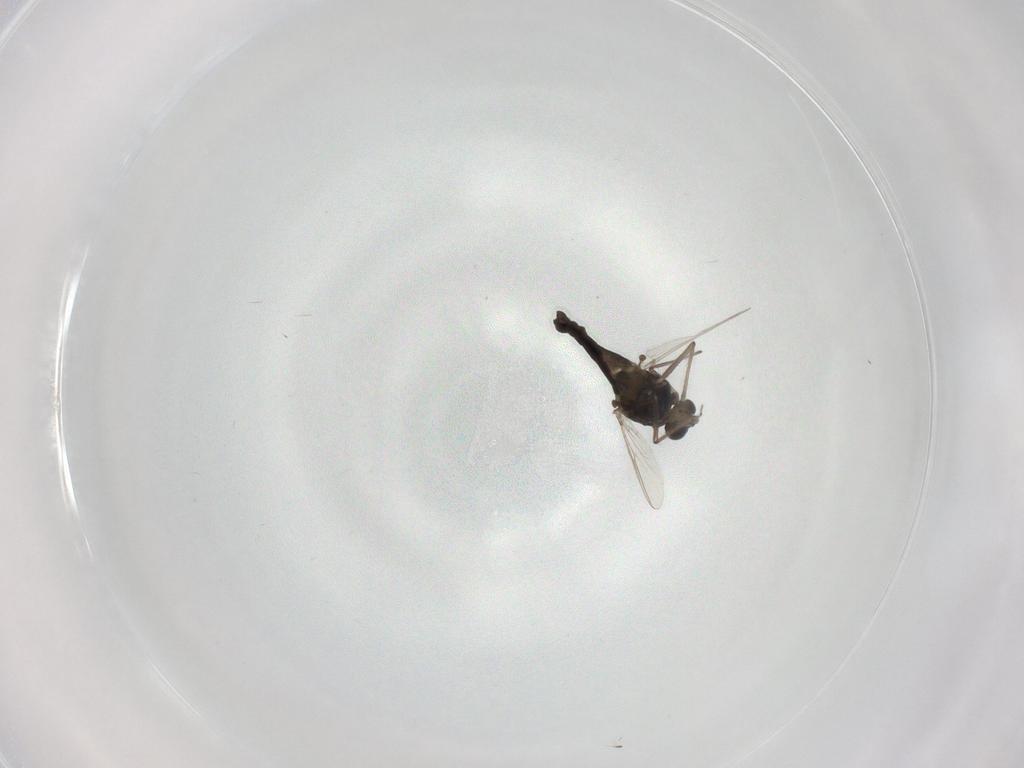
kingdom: Animalia
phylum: Arthropoda
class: Insecta
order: Diptera
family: Chironomidae
